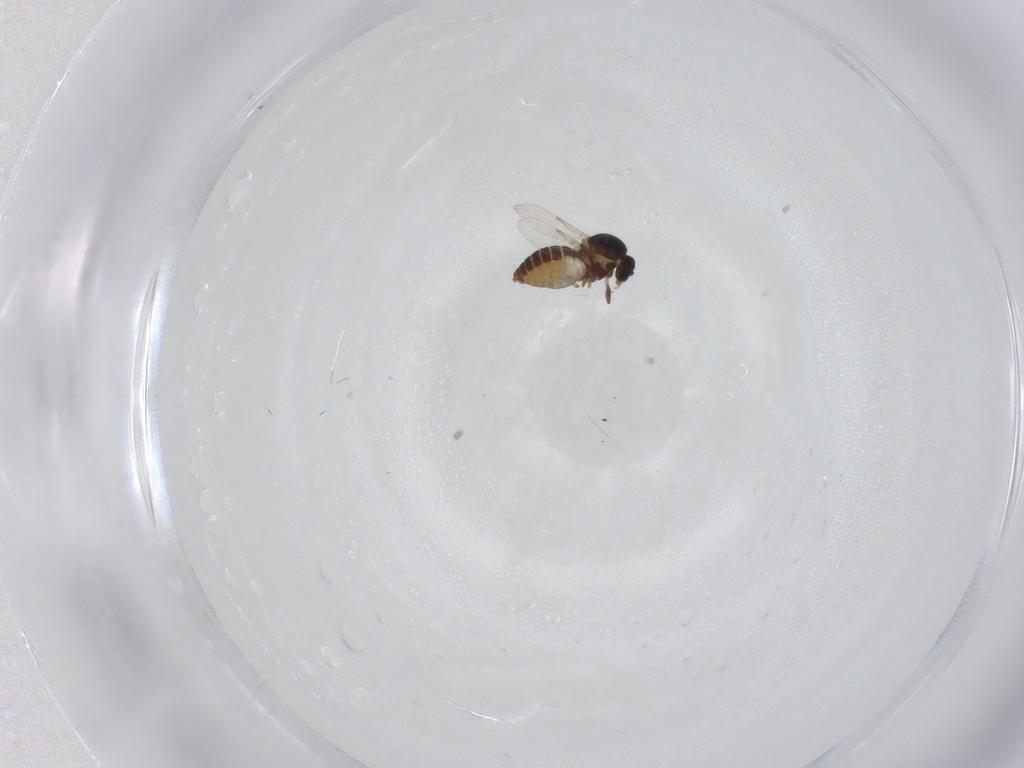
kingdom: Animalia
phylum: Arthropoda
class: Insecta
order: Diptera
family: Ceratopogonidae
